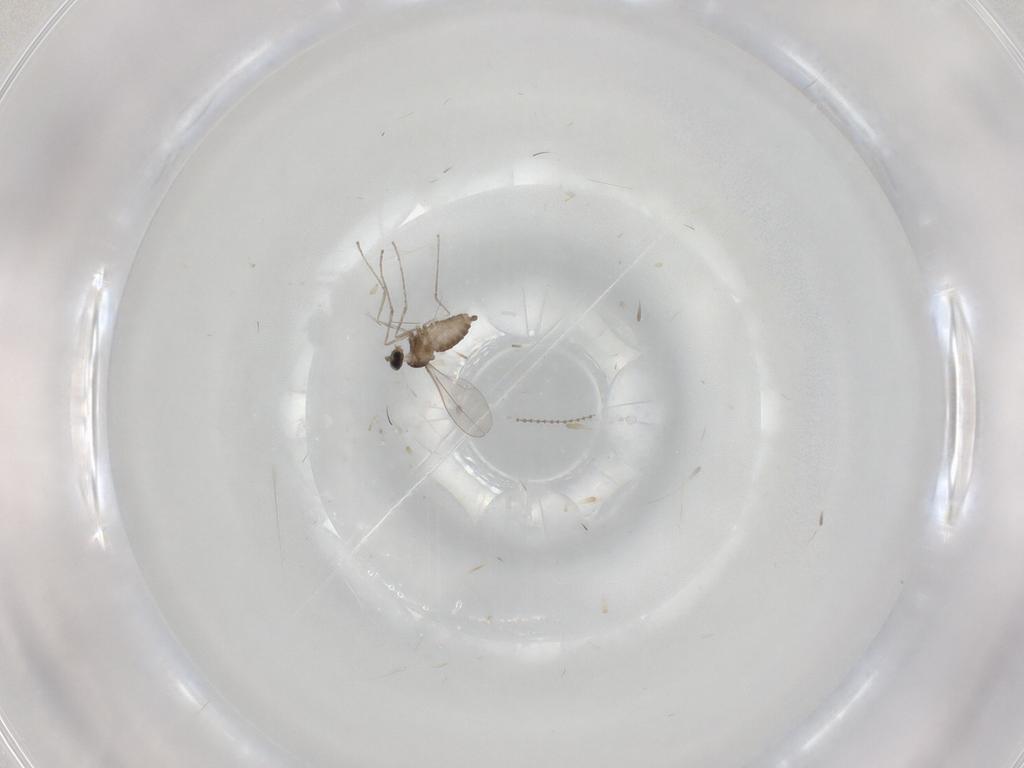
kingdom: Animalia
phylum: Arthropoda
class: Insecta
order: Diptera
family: Cecidomyiidae
